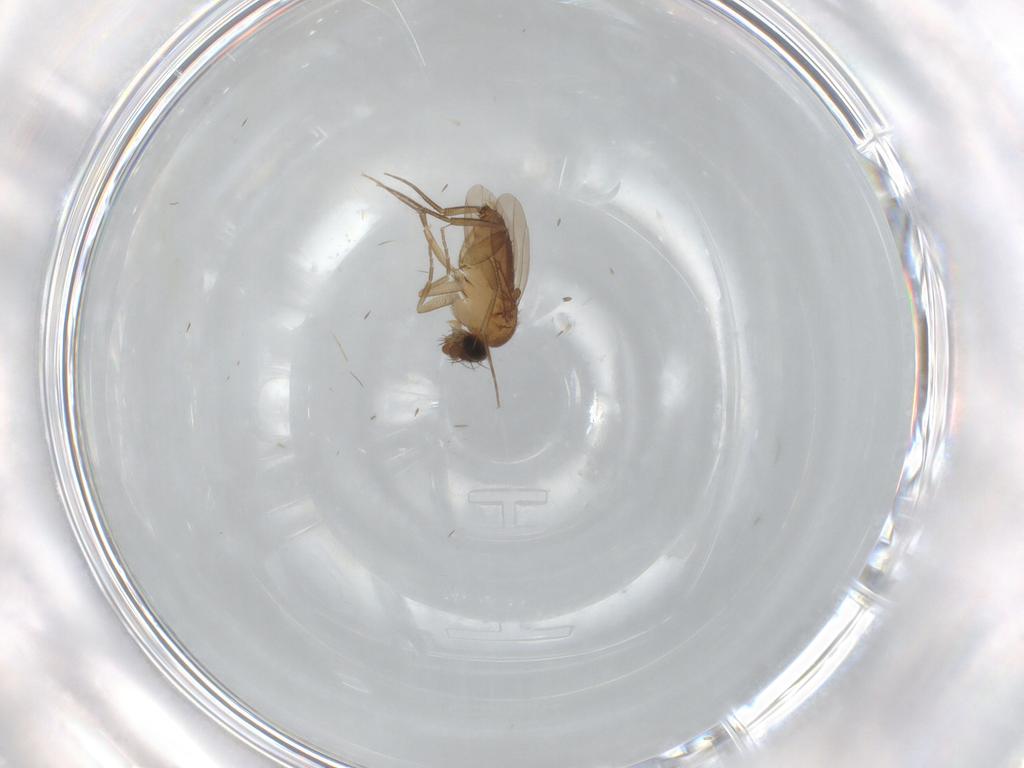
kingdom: Animalia
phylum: Arthropoda
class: Insecta
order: Diptera
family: Phoridae
